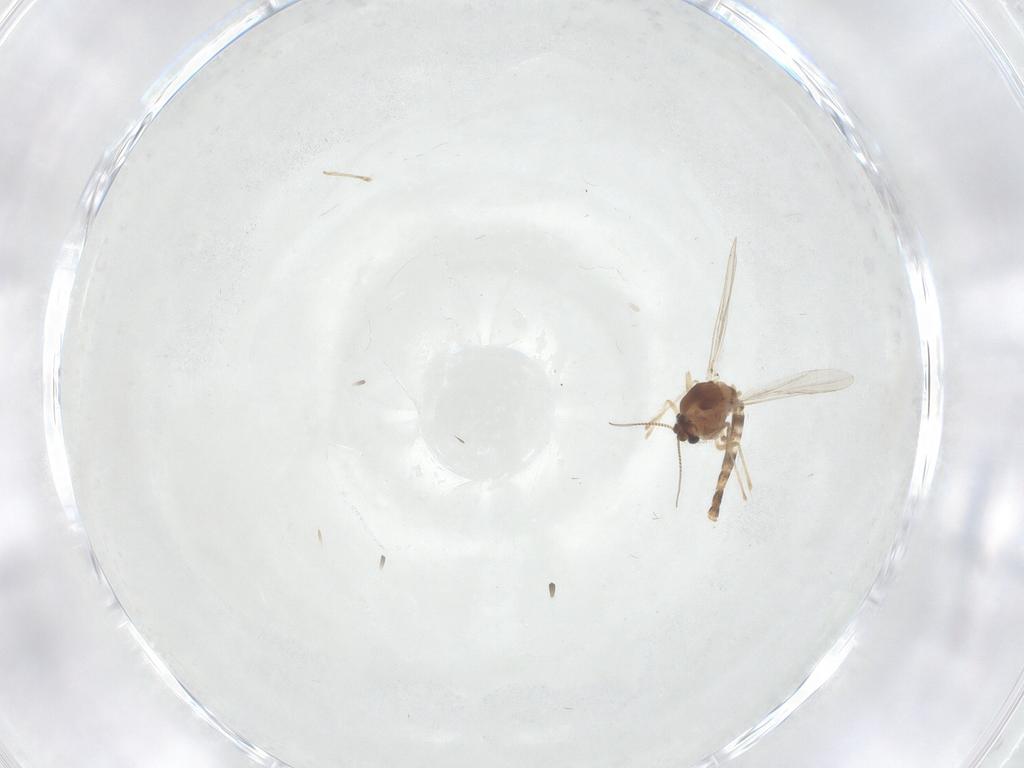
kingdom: Animalia
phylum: Arthropoda
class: Insecta
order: Diptera
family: Chironomidae
